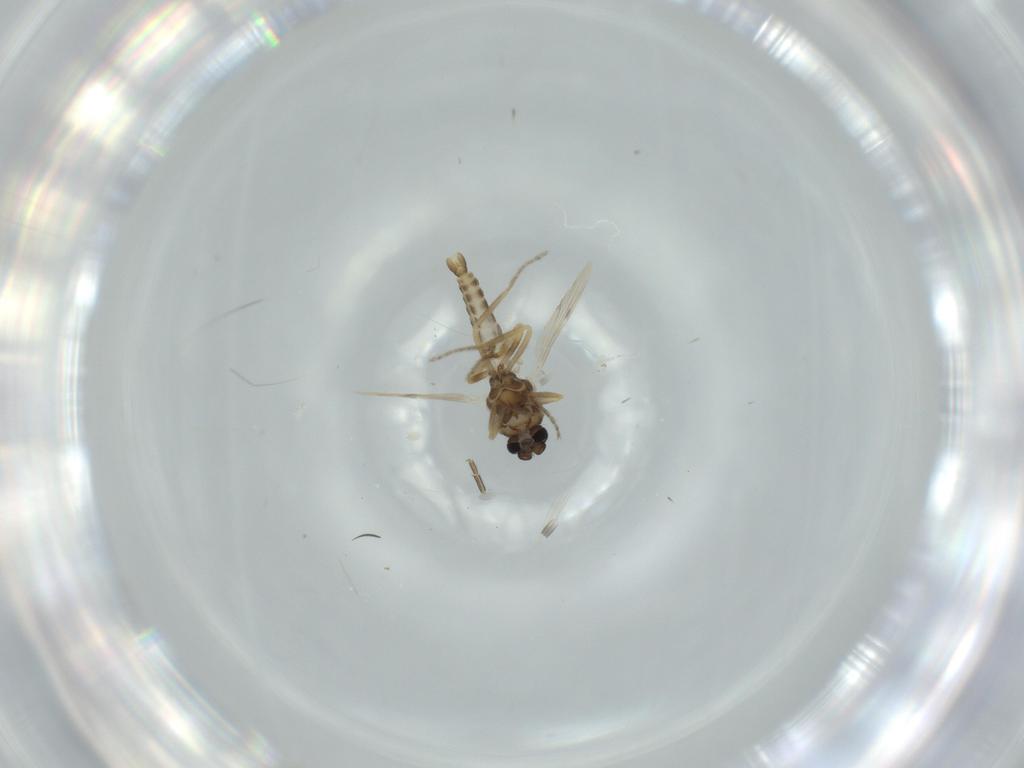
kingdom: Animalia
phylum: Arthropoda
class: Insecta
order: Diptera
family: Ceratopogonidae
